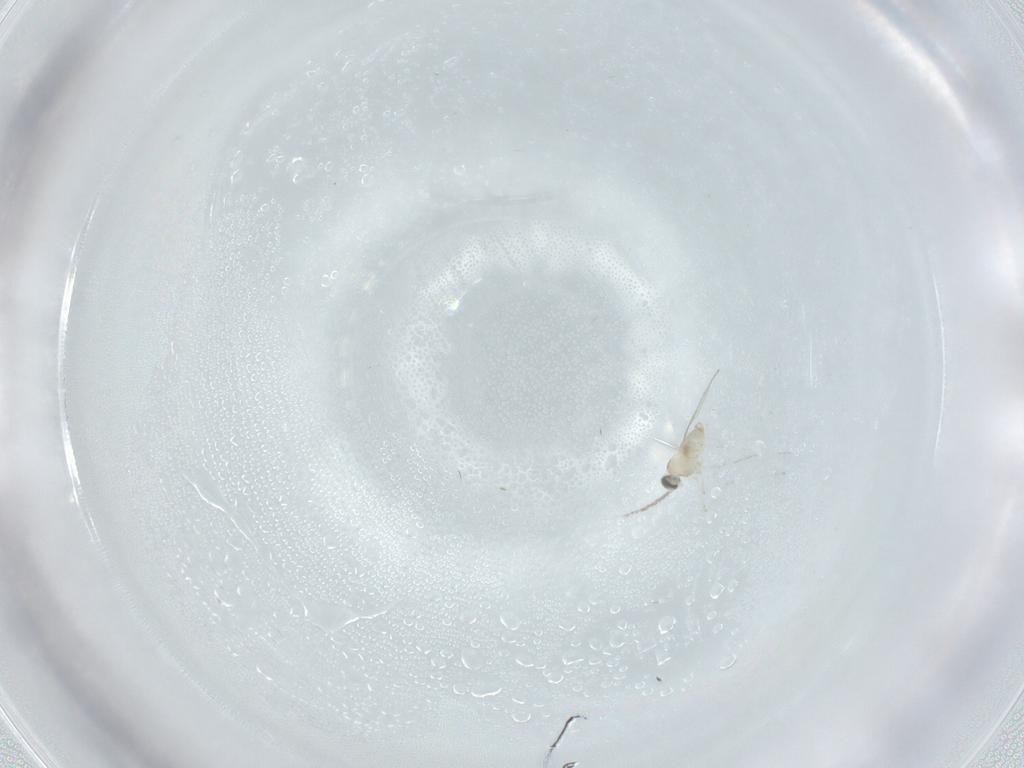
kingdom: Animalia
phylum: Arthropoda
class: Insecta
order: Diptera
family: Cecidomyiidae
